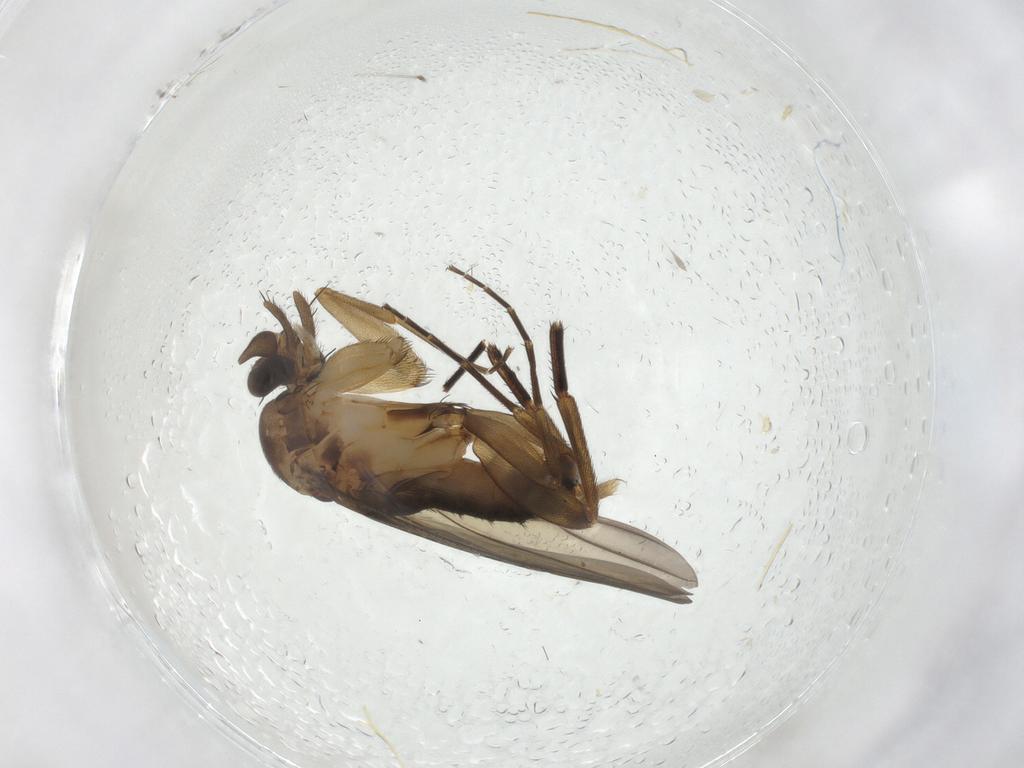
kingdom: Animalia
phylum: Arthropoda
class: Insecta
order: Diptera
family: Phoridae
